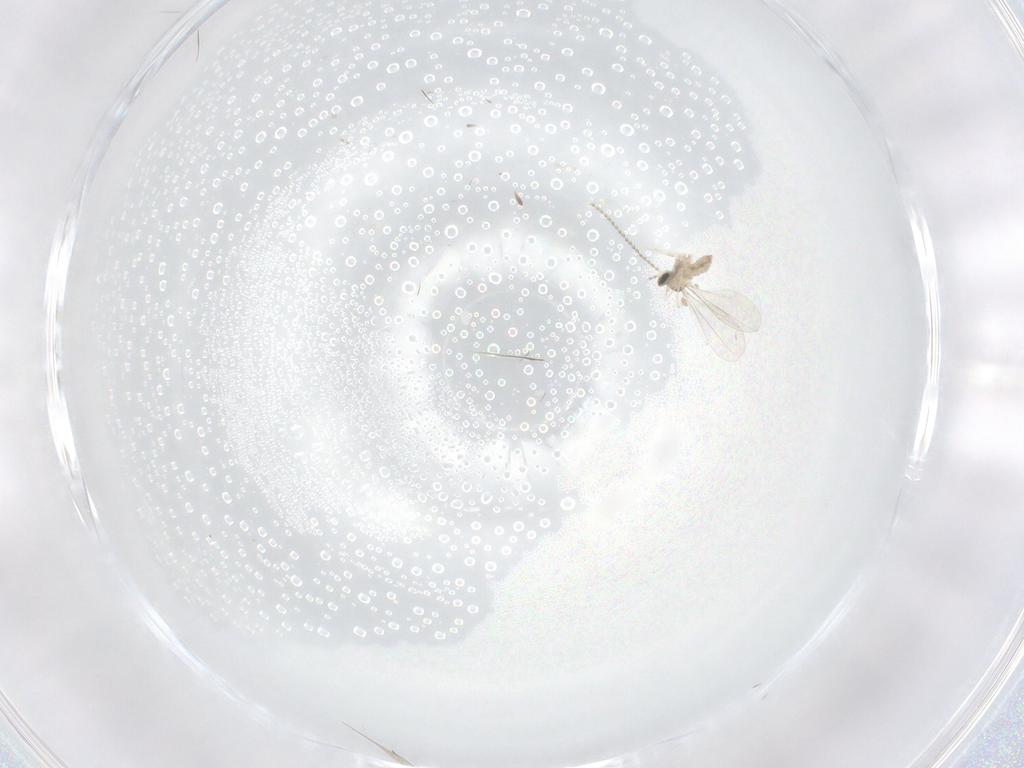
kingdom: Animalia
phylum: Arthropoda
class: Insecta
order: Diptera
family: Cecidomyiidae
